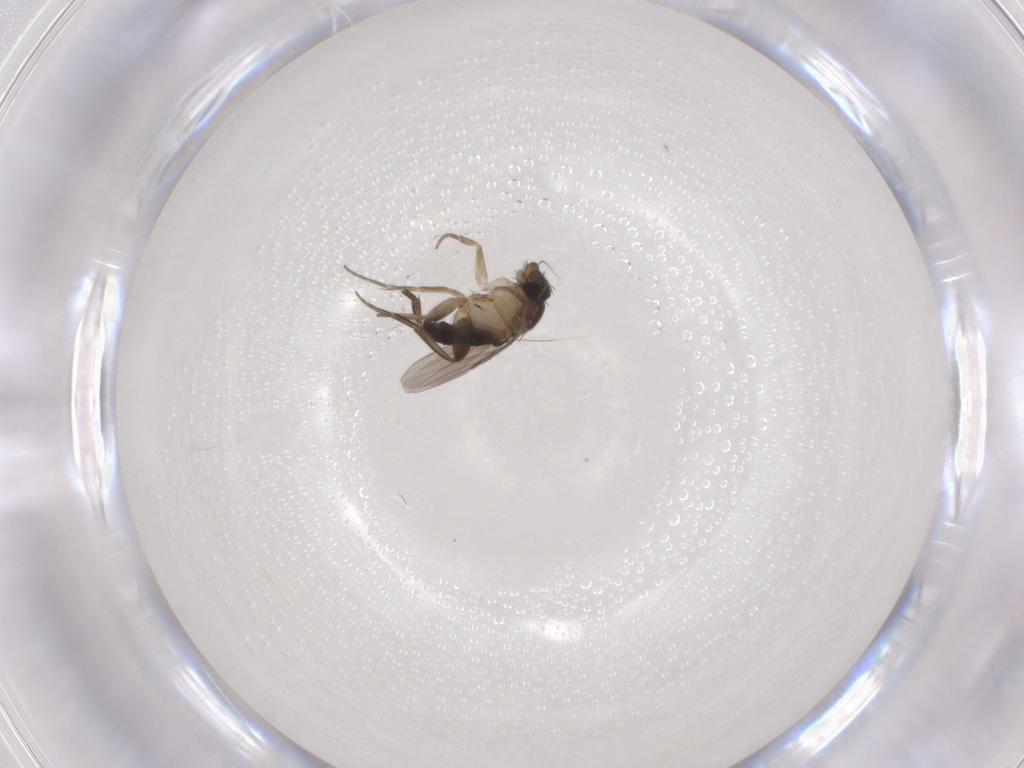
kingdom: Animalia
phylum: Arthropoda
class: Insecta
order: Diptera
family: Phoridae
